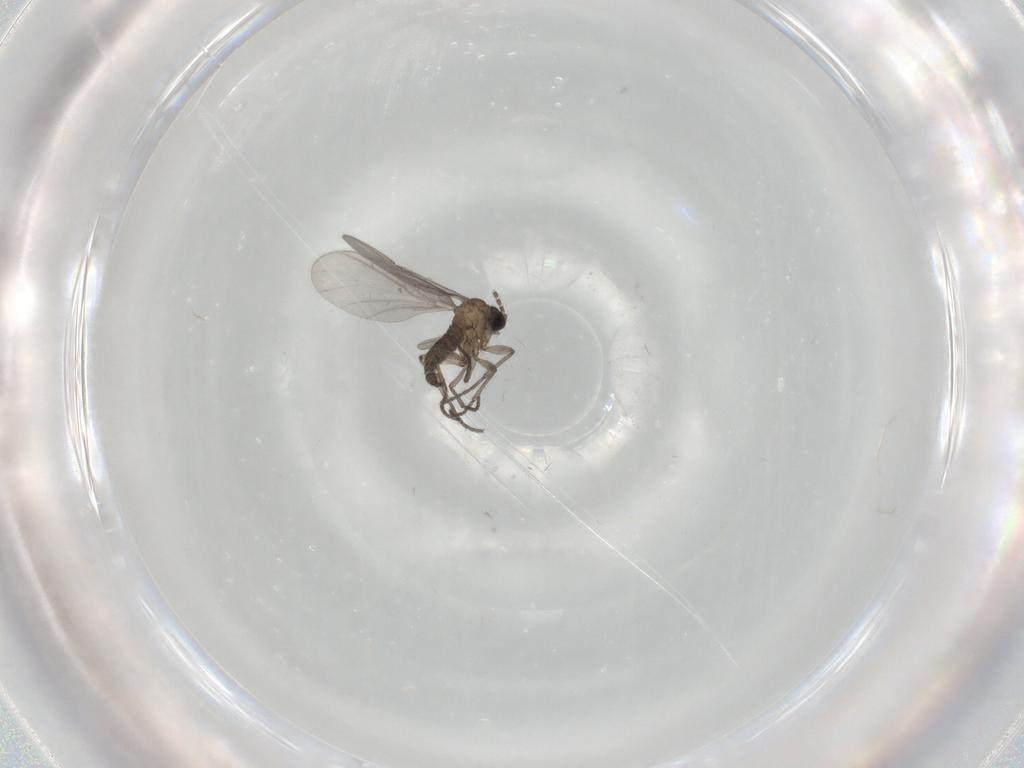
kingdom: Animalia
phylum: Arthropoda
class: Insecta
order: Diptera
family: Sciaridae
